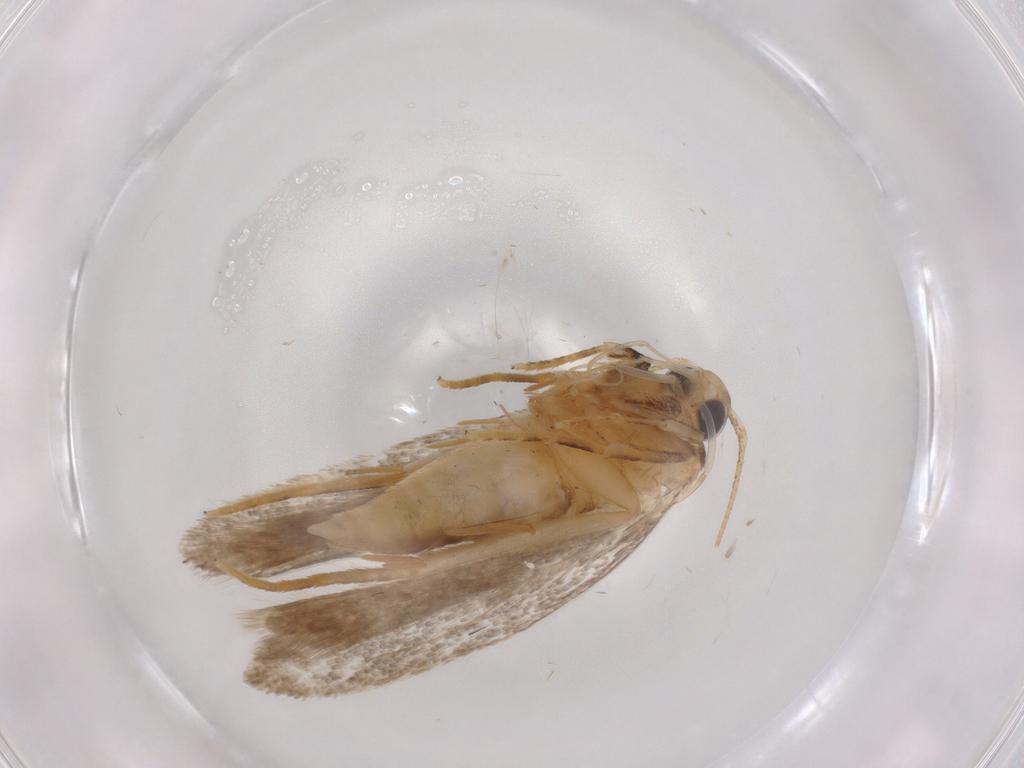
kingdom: Animalia
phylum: Arthropoda
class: Insecta
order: Lepidoptera
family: Autostichidae
